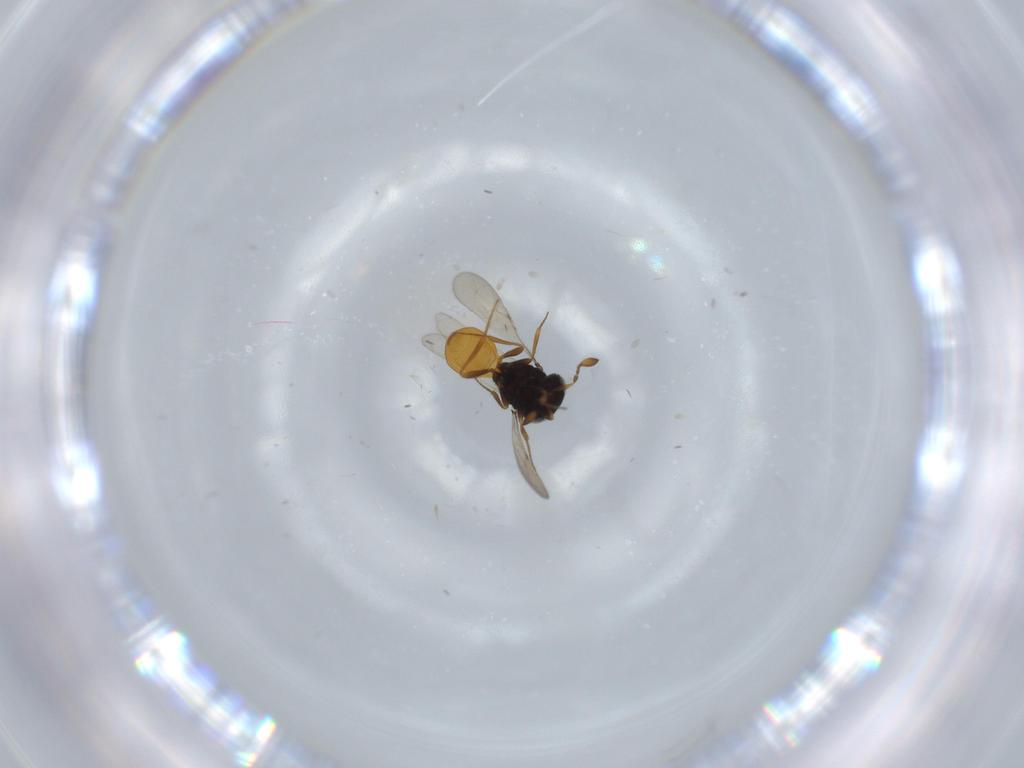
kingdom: Animalia
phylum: Arthropoda
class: Insecta
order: Hymenoptera
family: Scelionidae
